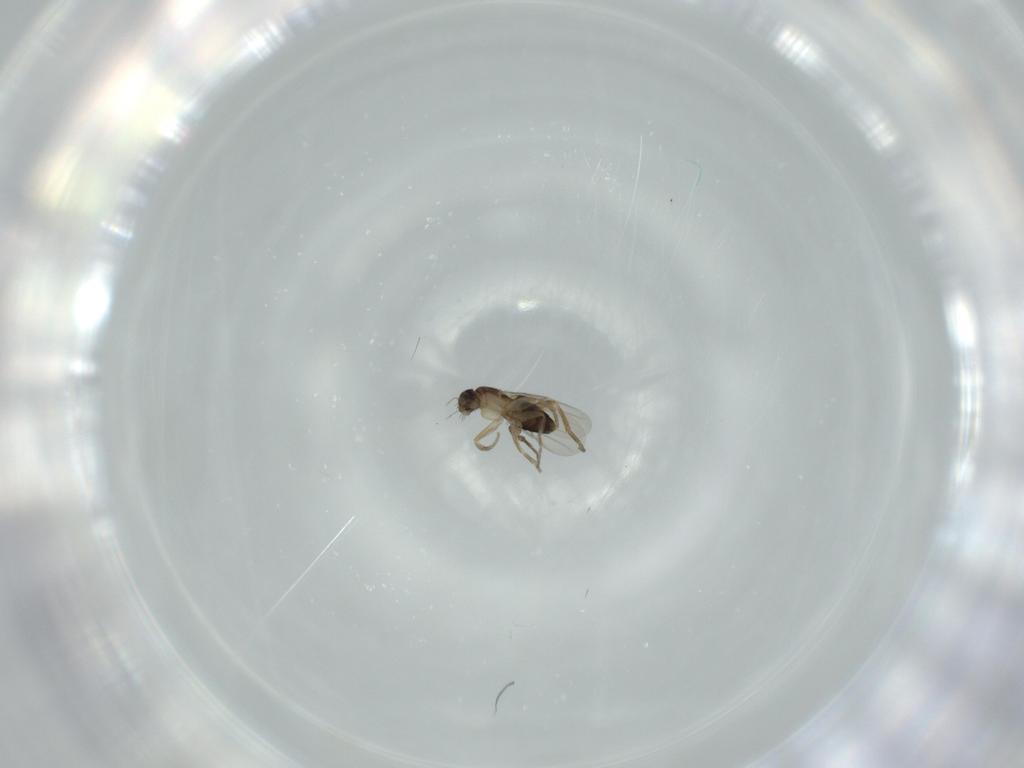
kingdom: Animalia
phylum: Arthropoda
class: Insecta
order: Diptera
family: Phoridae
